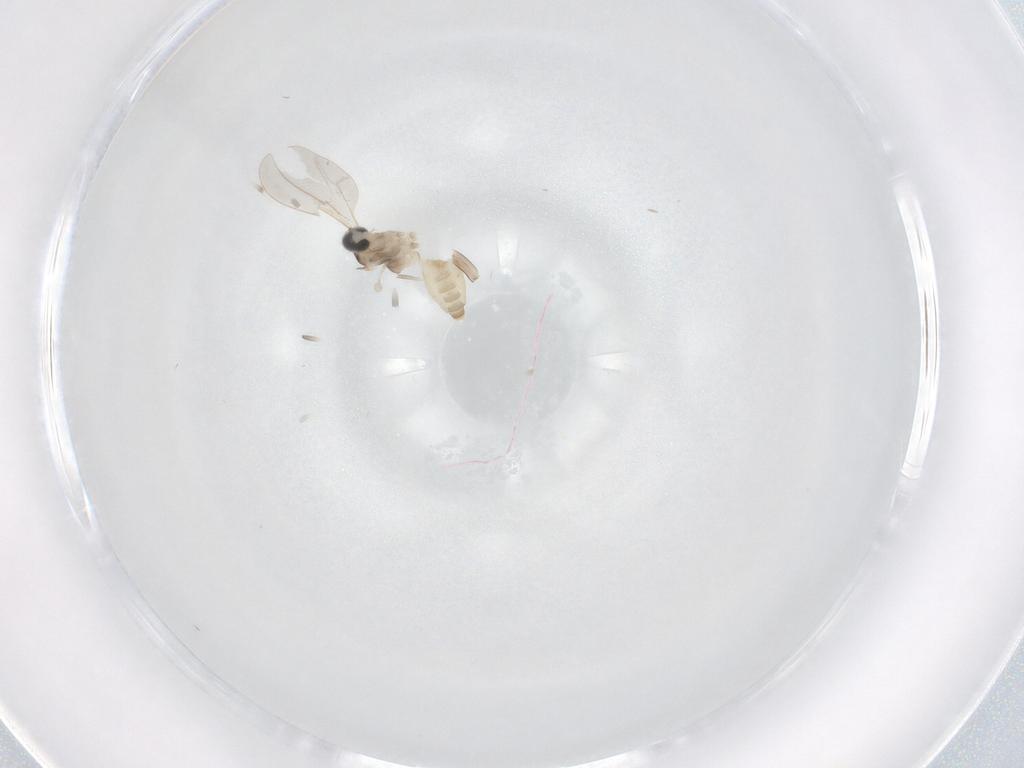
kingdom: Animalia
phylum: Arthropoda
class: Insecta
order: Diptera
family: Cecidomyiidae
